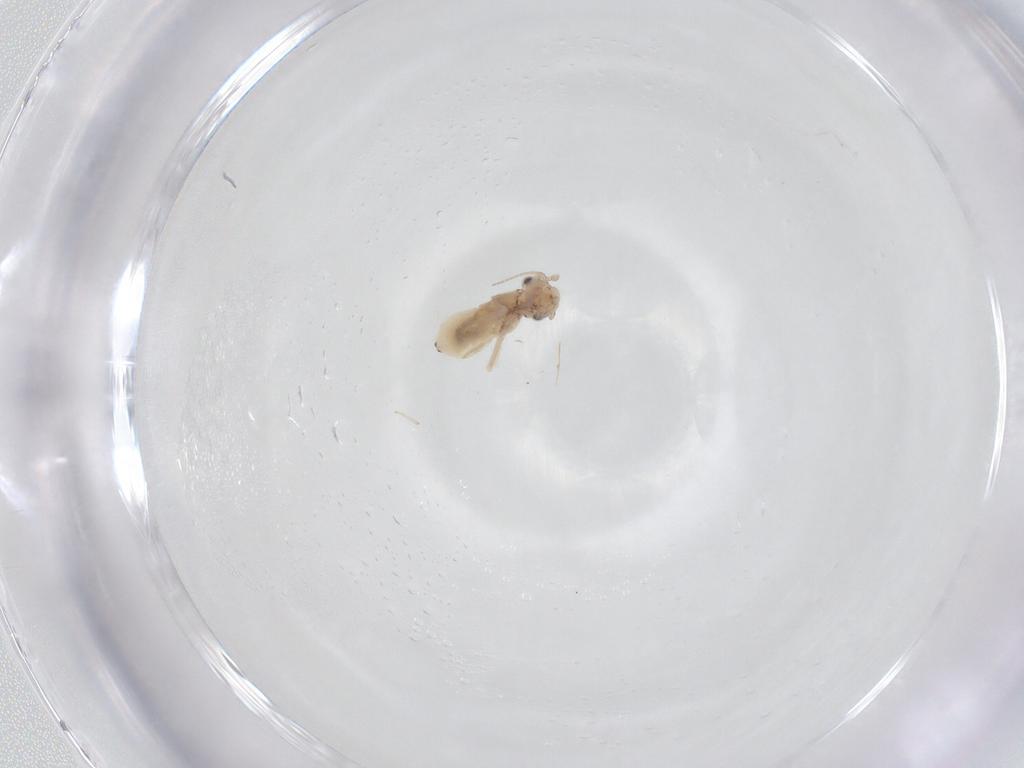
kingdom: Animalia
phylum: Arthropoda
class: Insecta
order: Psocodea
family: Lepidopsocidae
